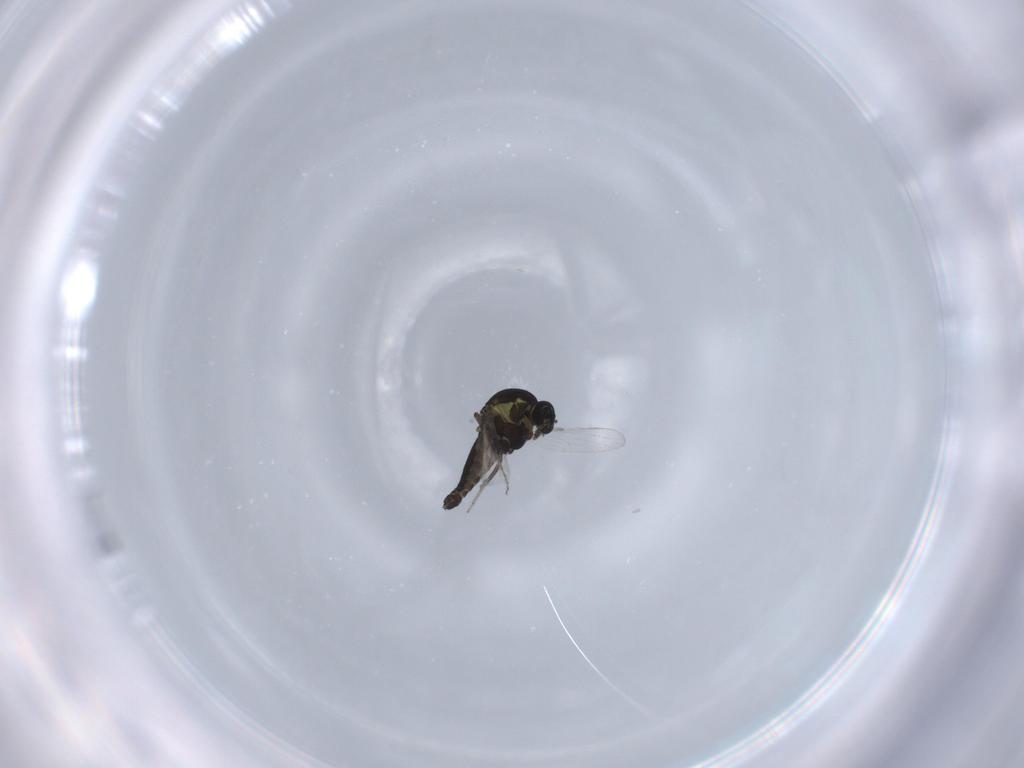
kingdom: Animalia
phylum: Arthropoda
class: Insecta
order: Diptera
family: Ceratopogonidae
